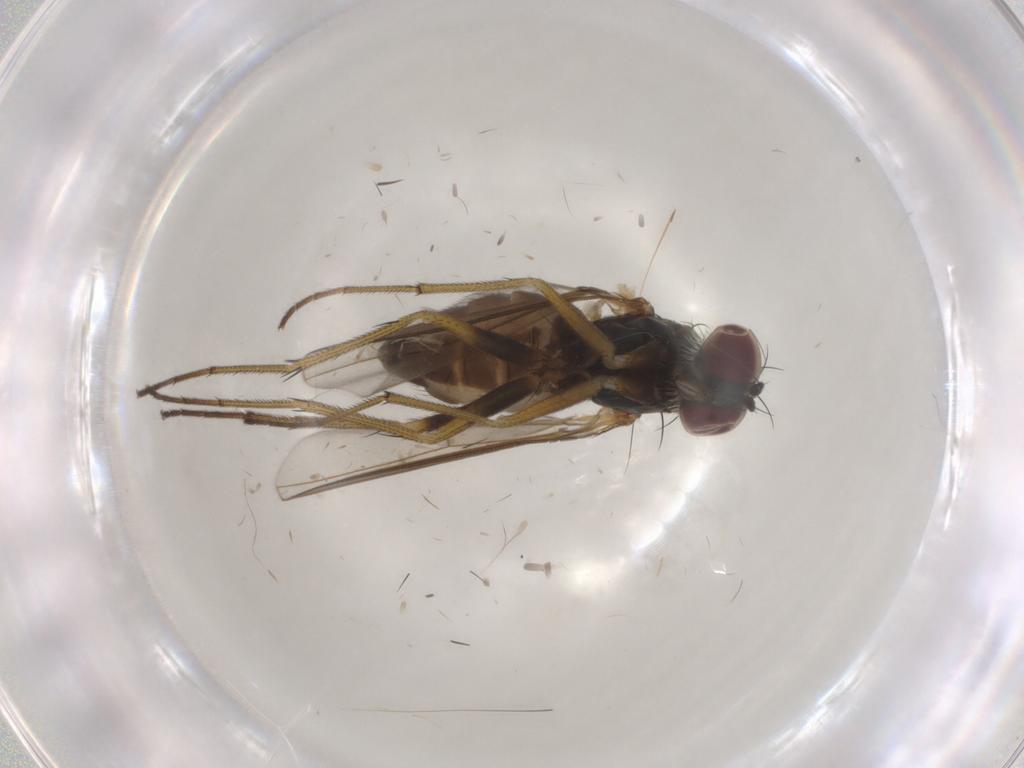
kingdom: Animalia
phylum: Arthropoda
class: Insecta
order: Diptera
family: Dolichopodidae
